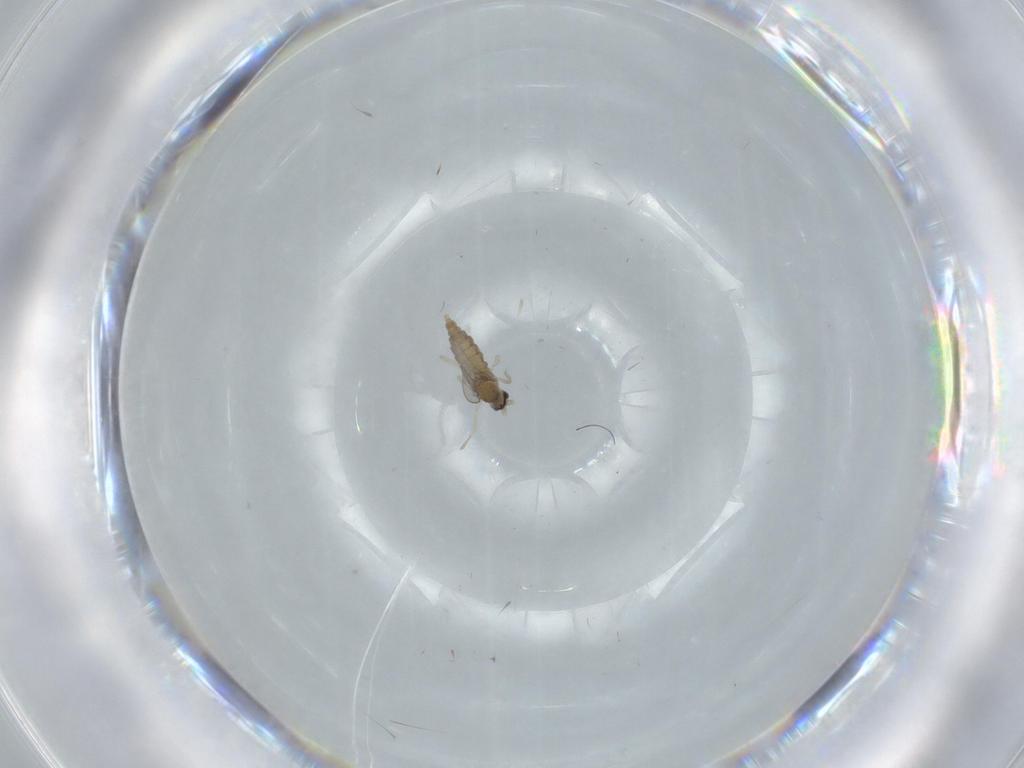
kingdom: Animalia
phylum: Arthropoda
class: Insecta
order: Diptera
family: Cecidomyiidae
